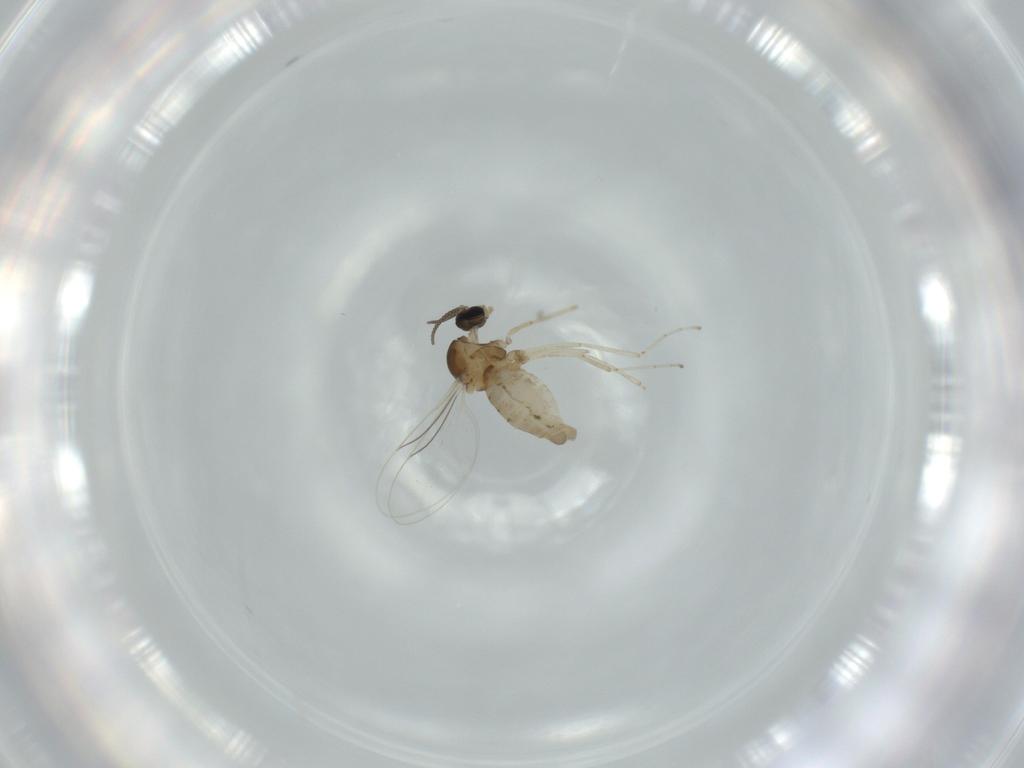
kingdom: Animalia
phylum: Arthropoda
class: Insecta
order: Diptera
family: Cecidomyiidae
